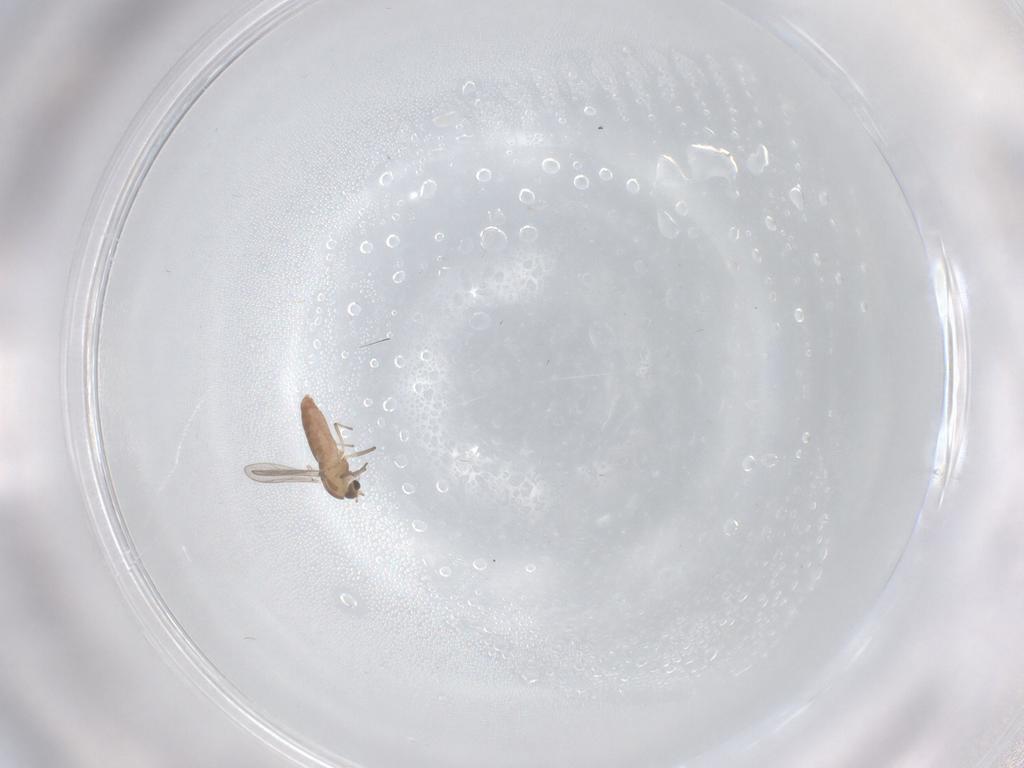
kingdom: Animalia
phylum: Arthropoda
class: Insecta
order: Diptera
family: Chironomidae
